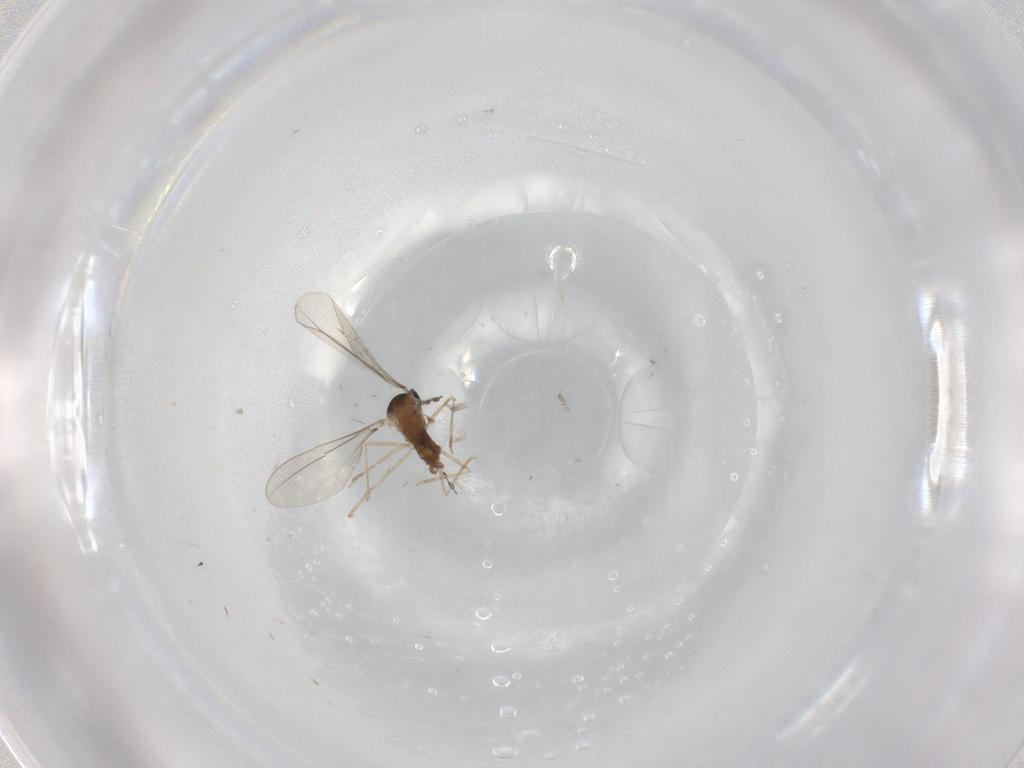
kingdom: Animalia
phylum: Arthropoda
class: Insecta
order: Diptera
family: Cecidomyiidae
